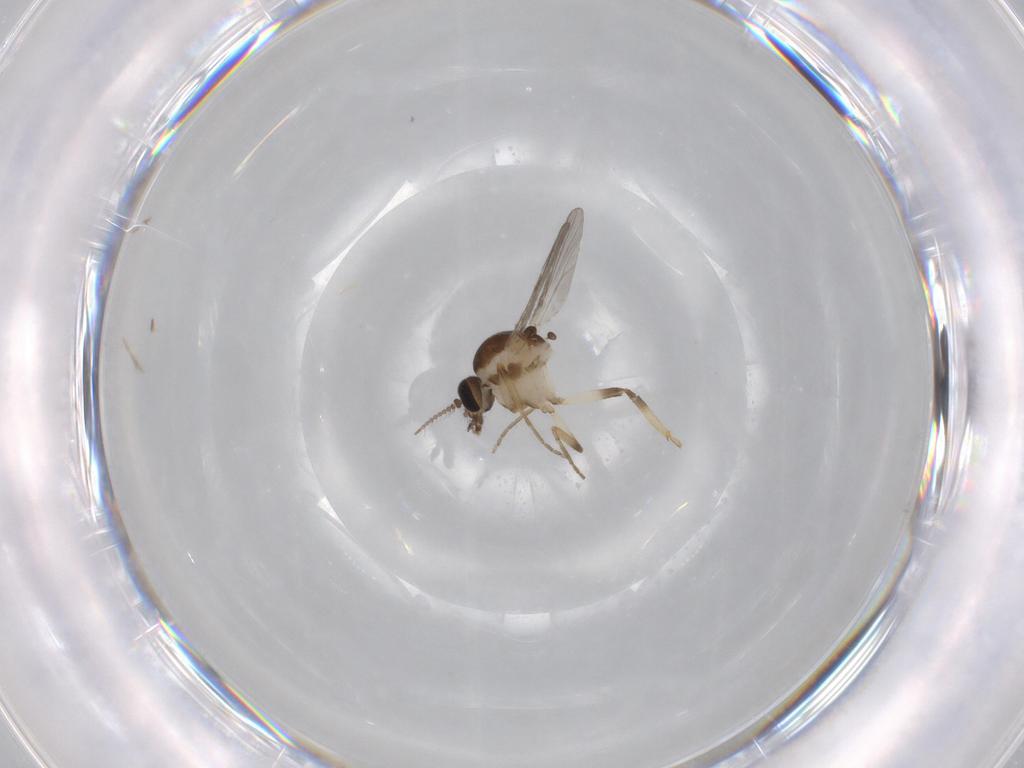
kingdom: Animalia
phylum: Arthropoda
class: Insecta
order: Diptera
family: Ceratopogonidae
